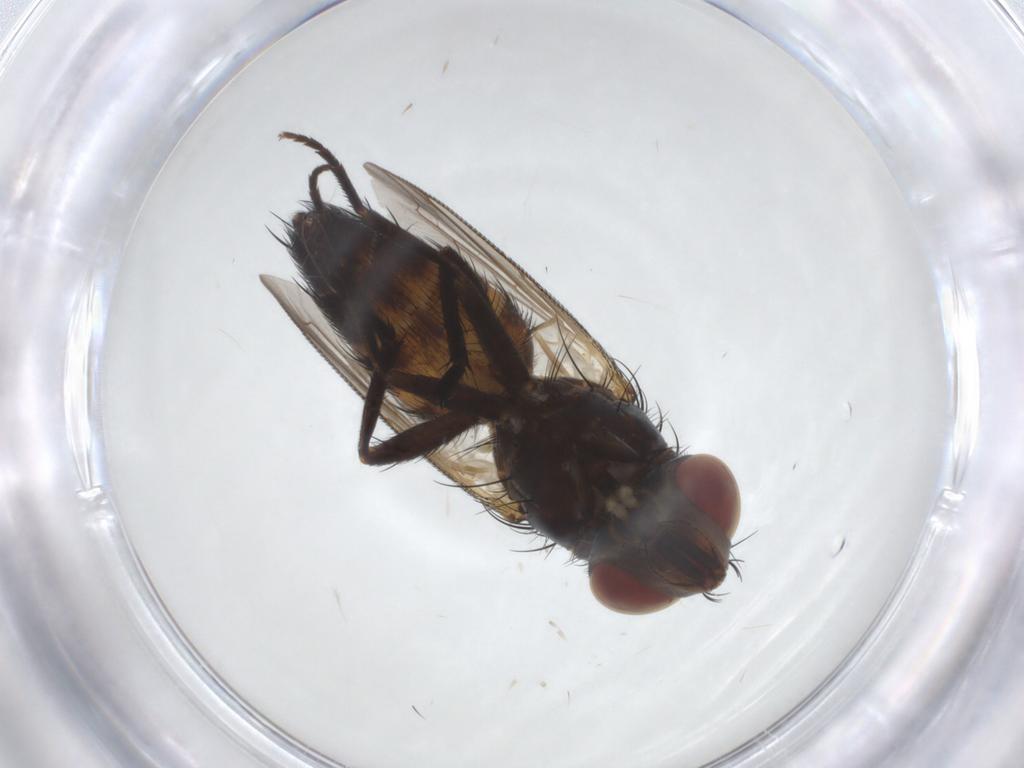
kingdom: Animalia
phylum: Arthropoda
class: Insecta
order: Diptera
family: Sarcophagidae
